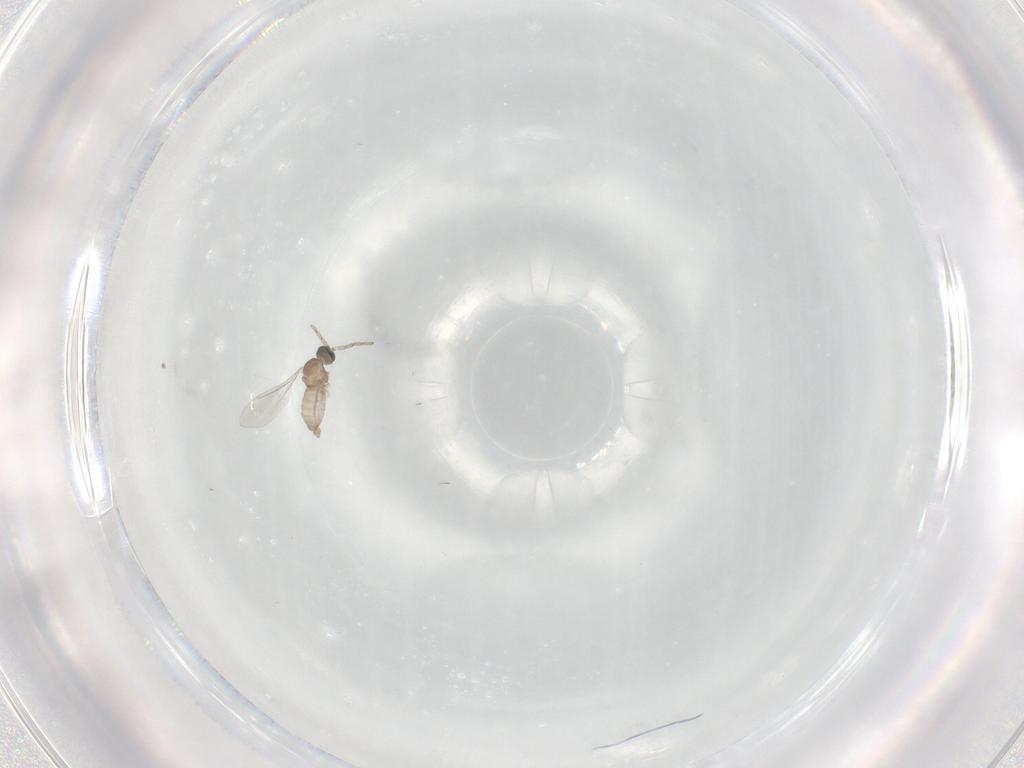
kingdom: Animalia
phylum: Arthropoda
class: Insecta
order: Diptera
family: Cecidomyiidae
